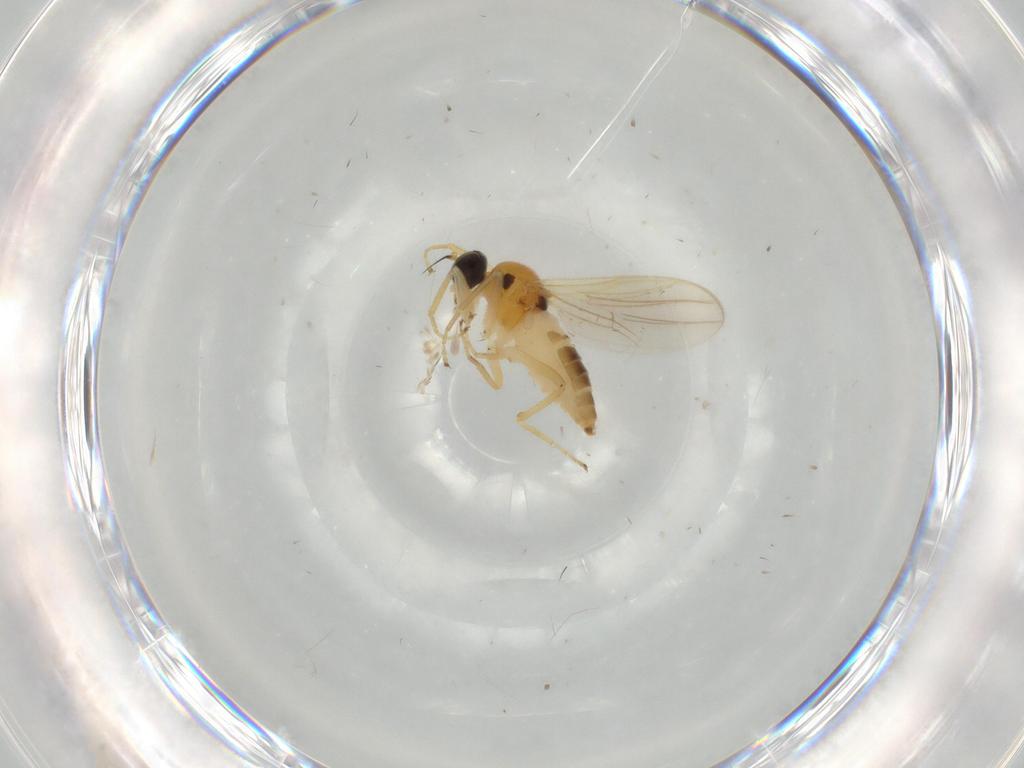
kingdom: Animalia
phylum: Arthropoda
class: Insecta
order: Diptera
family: Hybotidae
